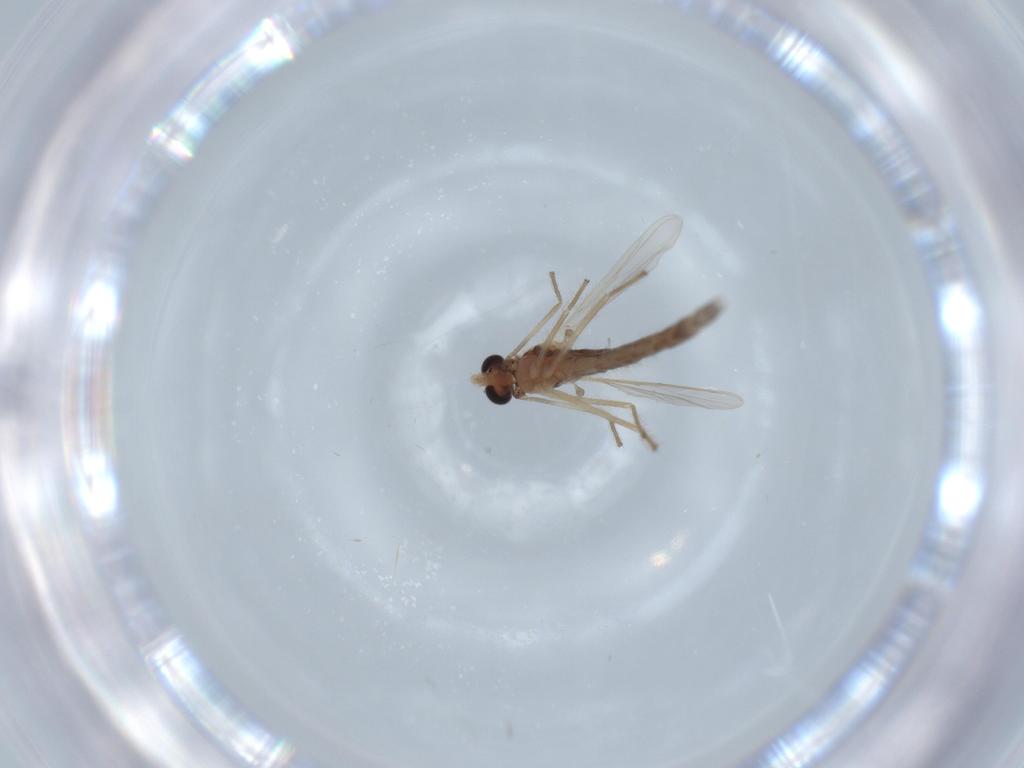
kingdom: Animalia
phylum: Arthropoda
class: Insecta
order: Diptera
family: Chironomidae
